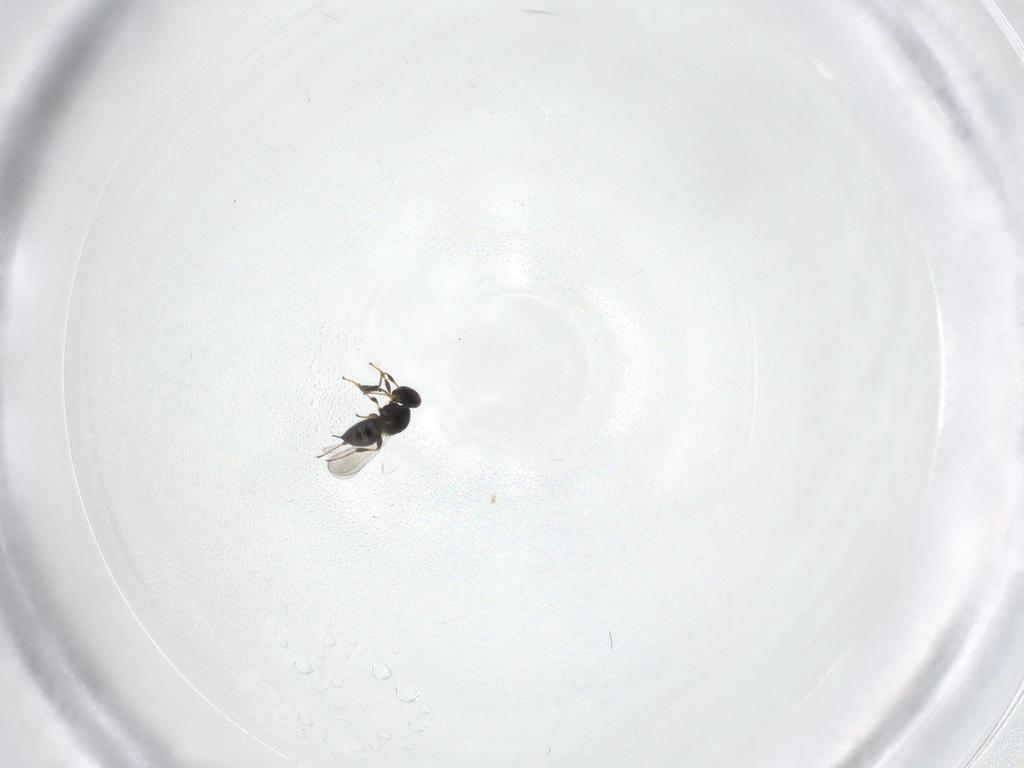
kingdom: Animalia
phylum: Arthropoda
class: Insecta
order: Hymenoptera
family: Platygastridae
